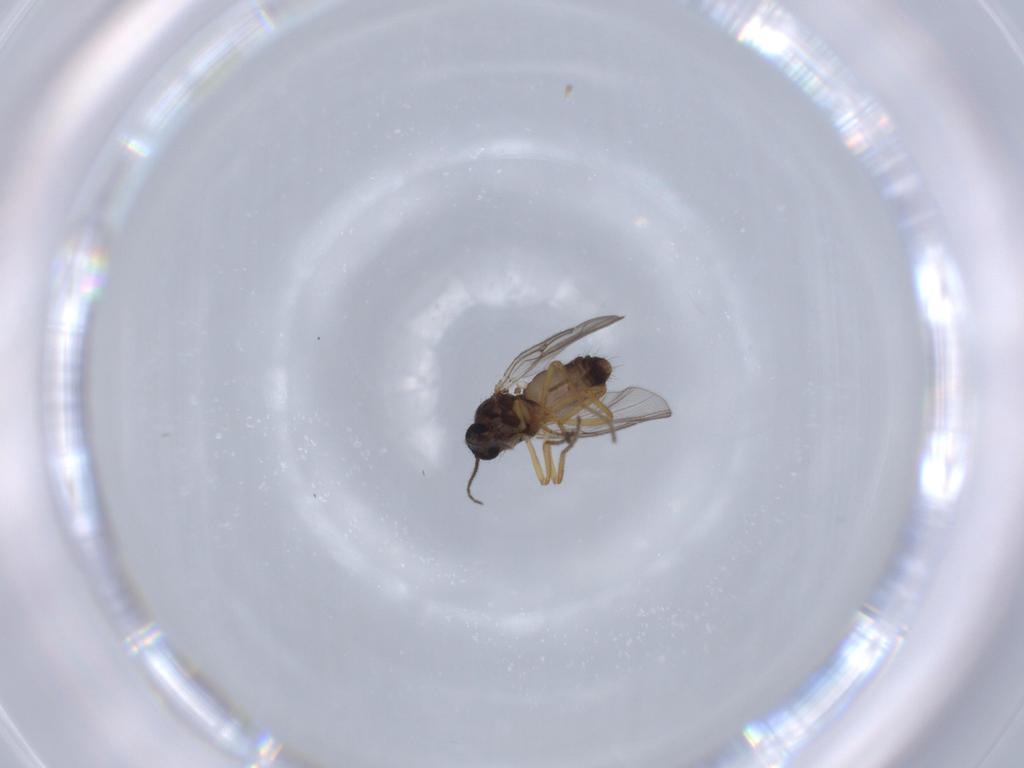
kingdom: Animalia
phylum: Arthropoda
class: Insecta
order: Diptera
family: Ceratopogonidae
